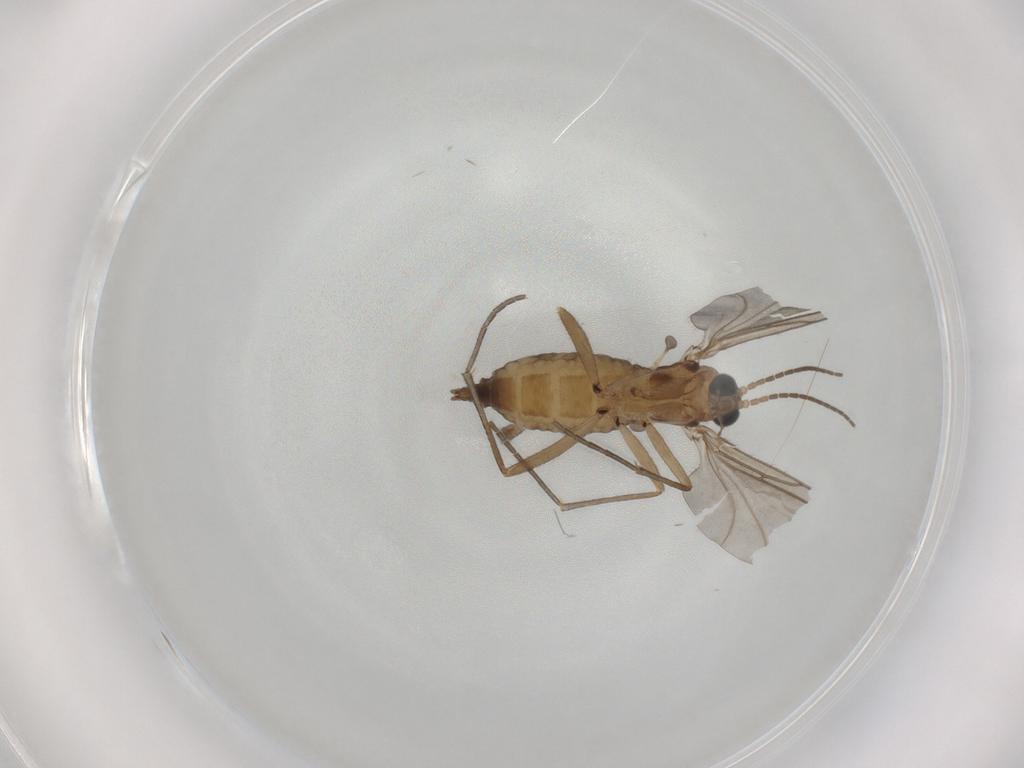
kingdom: Animalia
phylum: Arthropoda
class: Insecta
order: Diptera
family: Sciaridae
